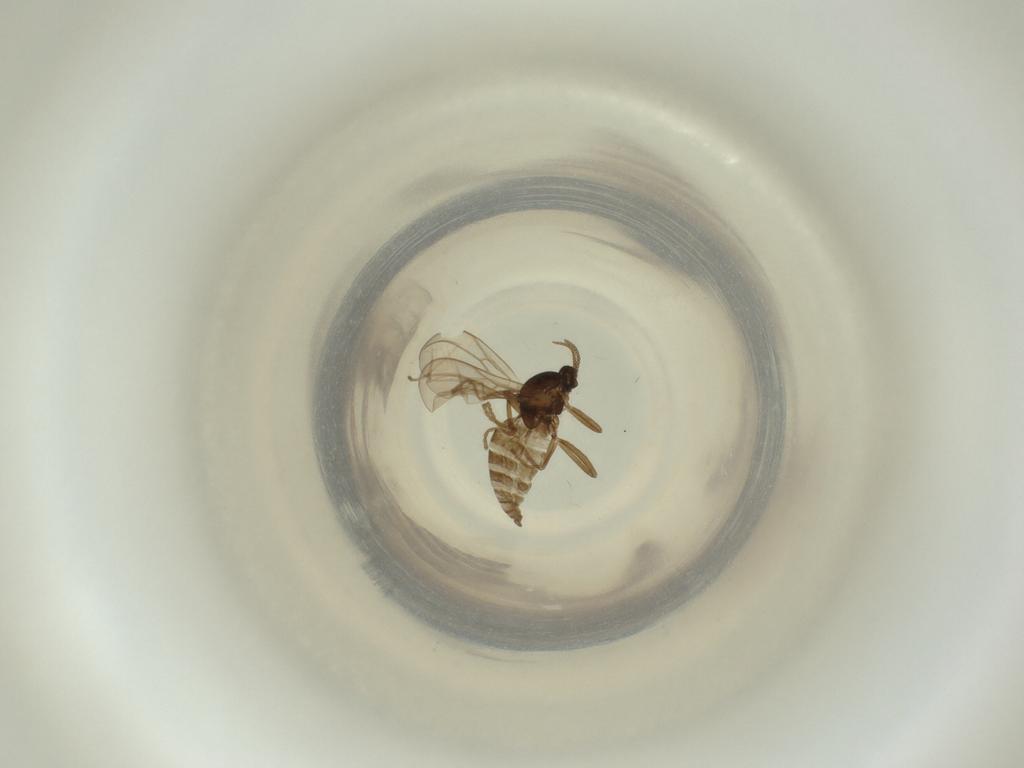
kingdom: Animalia
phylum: Arthropoda
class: Insecta
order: Diptera
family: Cecidomyiidae
